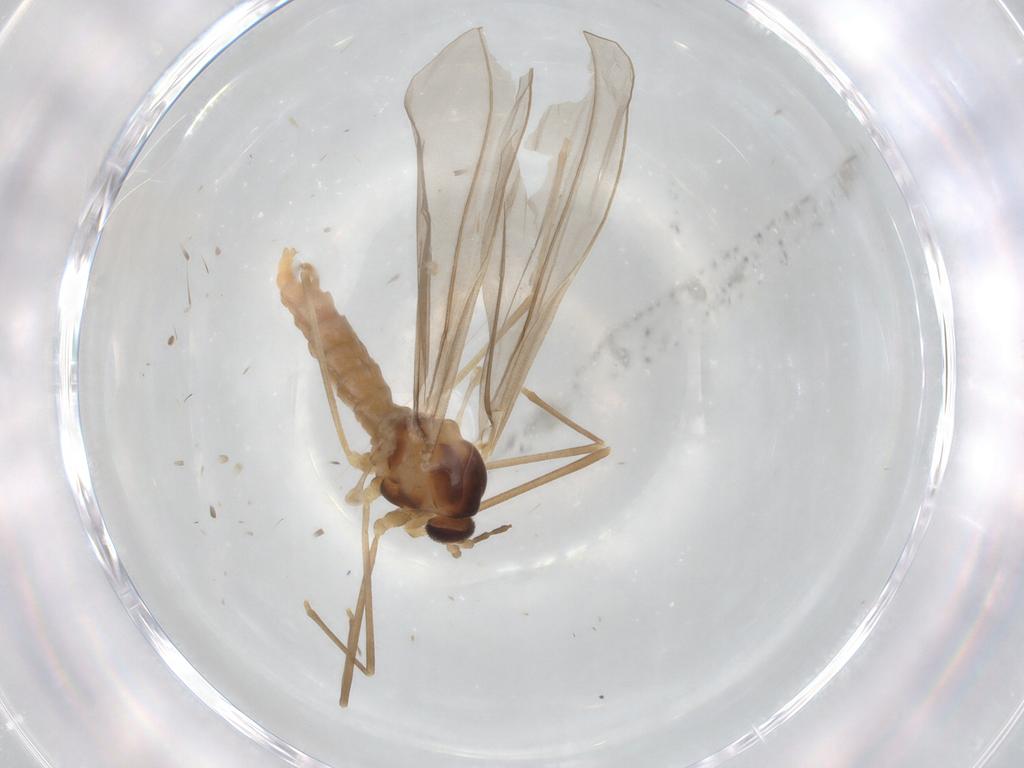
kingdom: Animalia
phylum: Arthropoda
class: Insecta
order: Diptera
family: Cecidomyiidae
